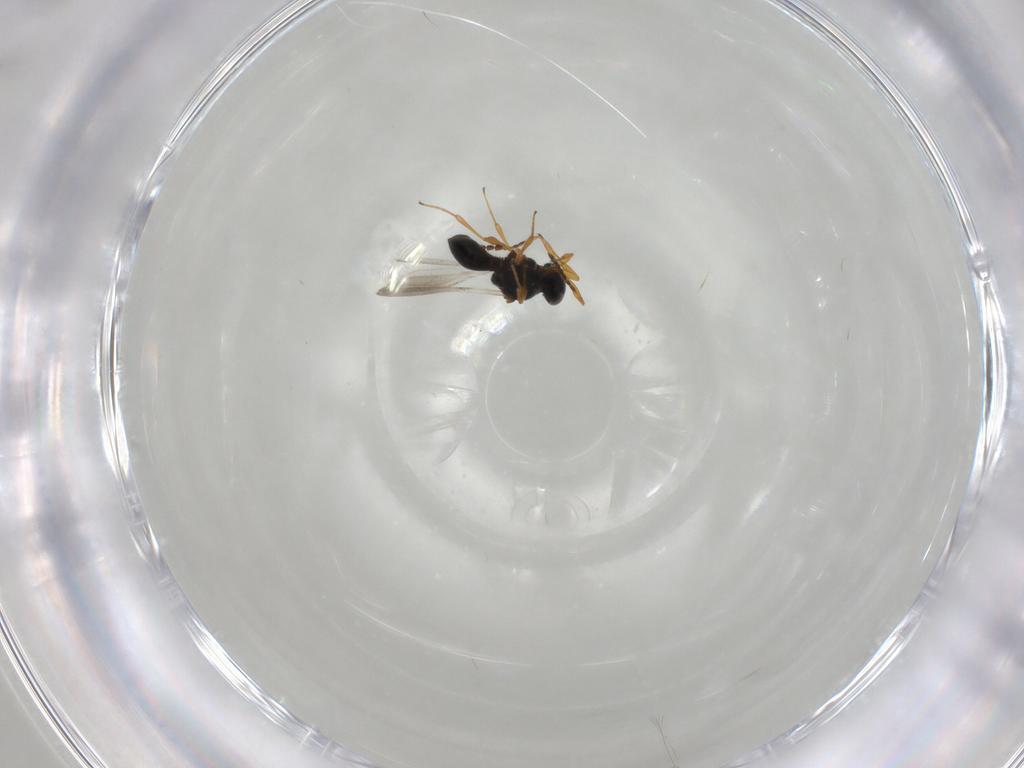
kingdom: Animalia
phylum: Arthropoda
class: Insecta
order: Hymenoptera
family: Platygastridae
